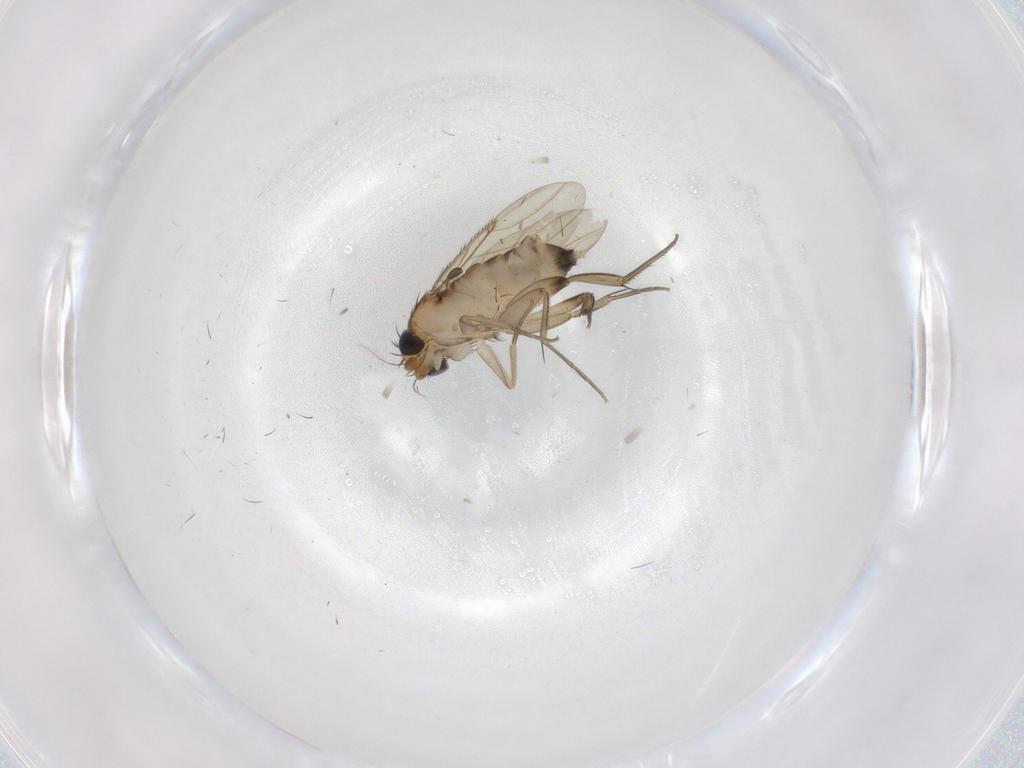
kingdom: Animalia
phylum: Arthropoda
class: Insecta
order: Diptera
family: Phoridae
